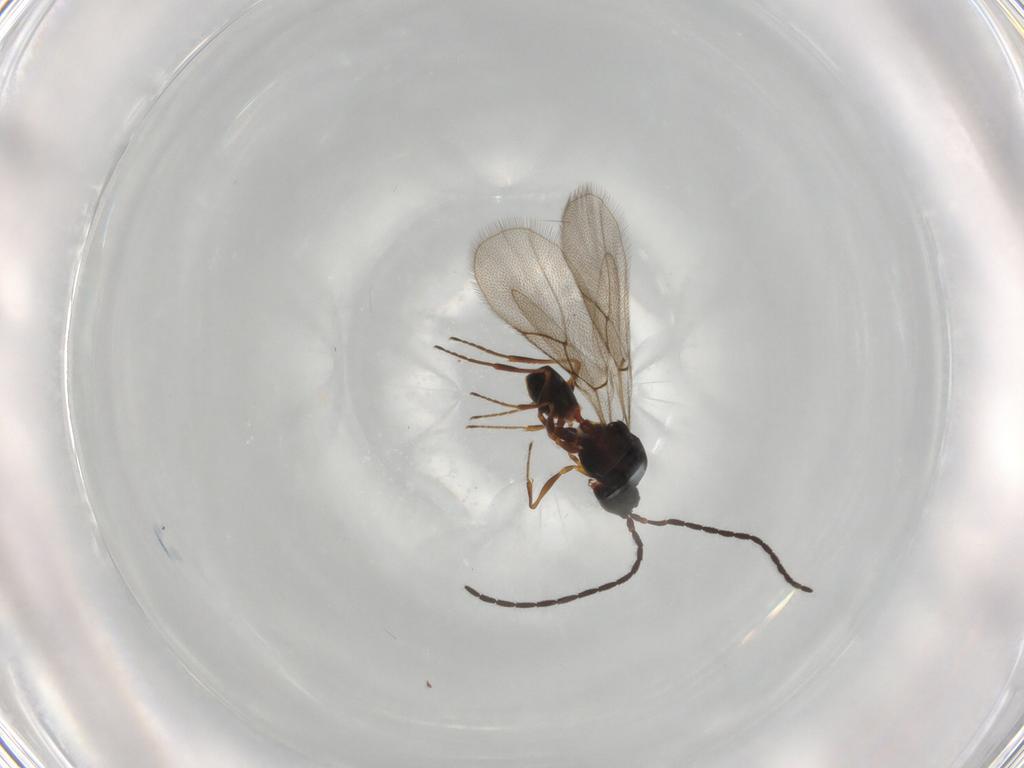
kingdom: Animalia
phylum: Arthropoda
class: Insecta
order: Hymenoptera
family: Figitidae
